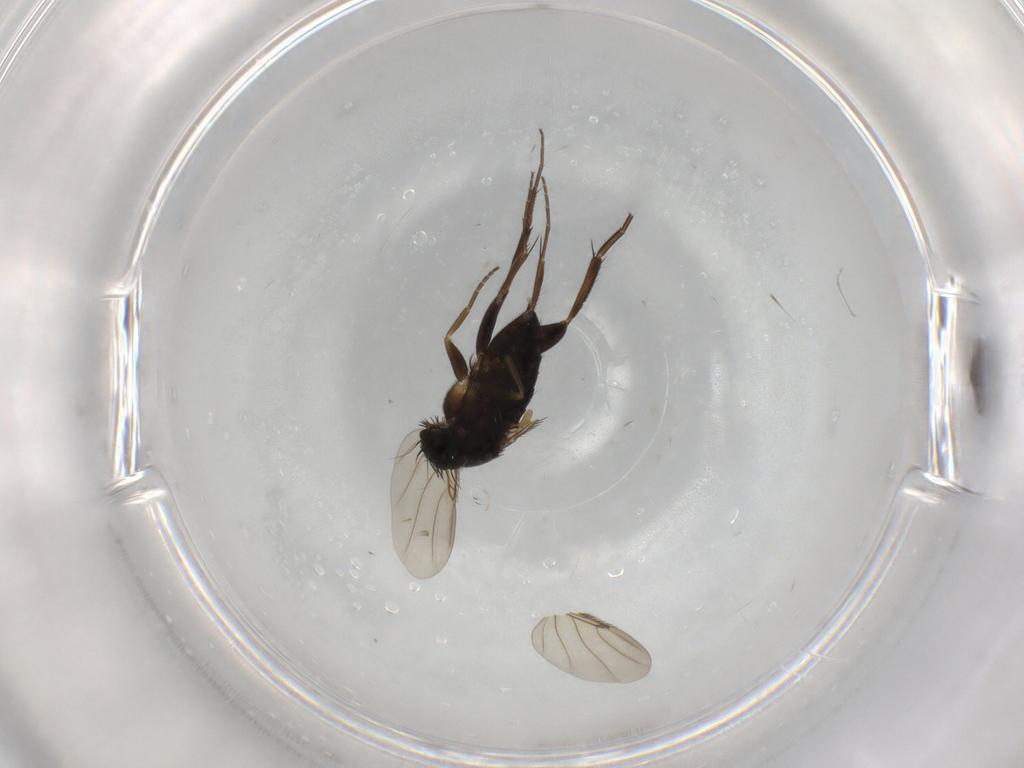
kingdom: Animalia
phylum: Arthropoda
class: Insecta
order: Diptera
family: Phoridae
